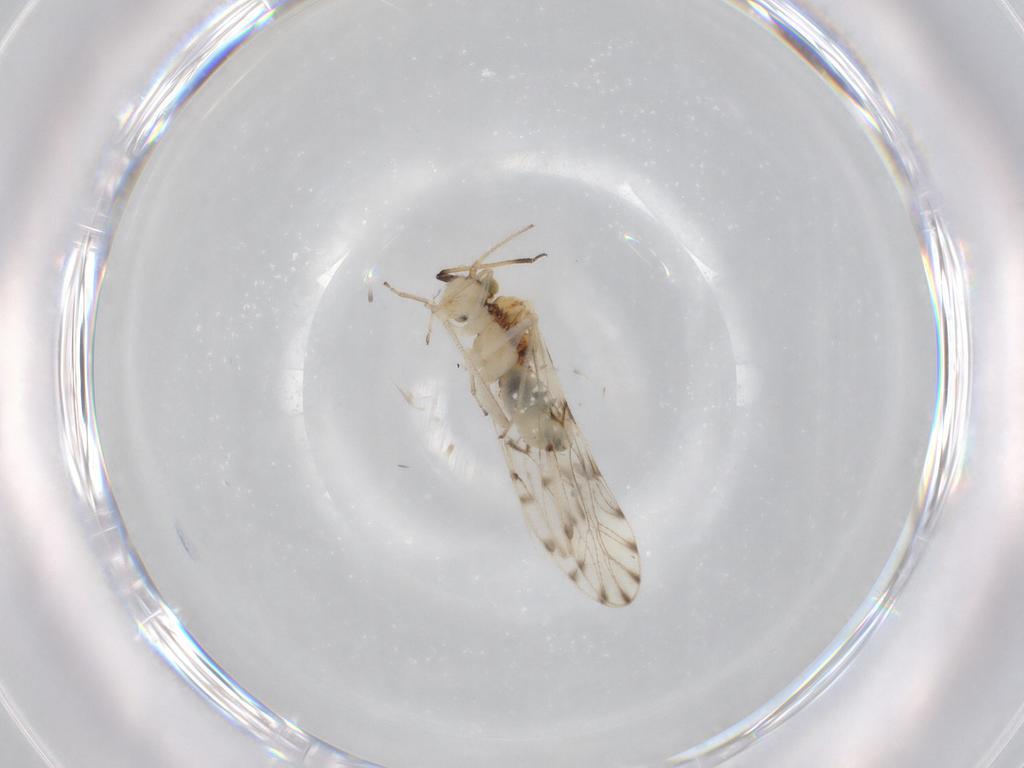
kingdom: Animalia
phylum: Arthropoda
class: Insecta
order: Psocodea
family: Ectopsocidae
